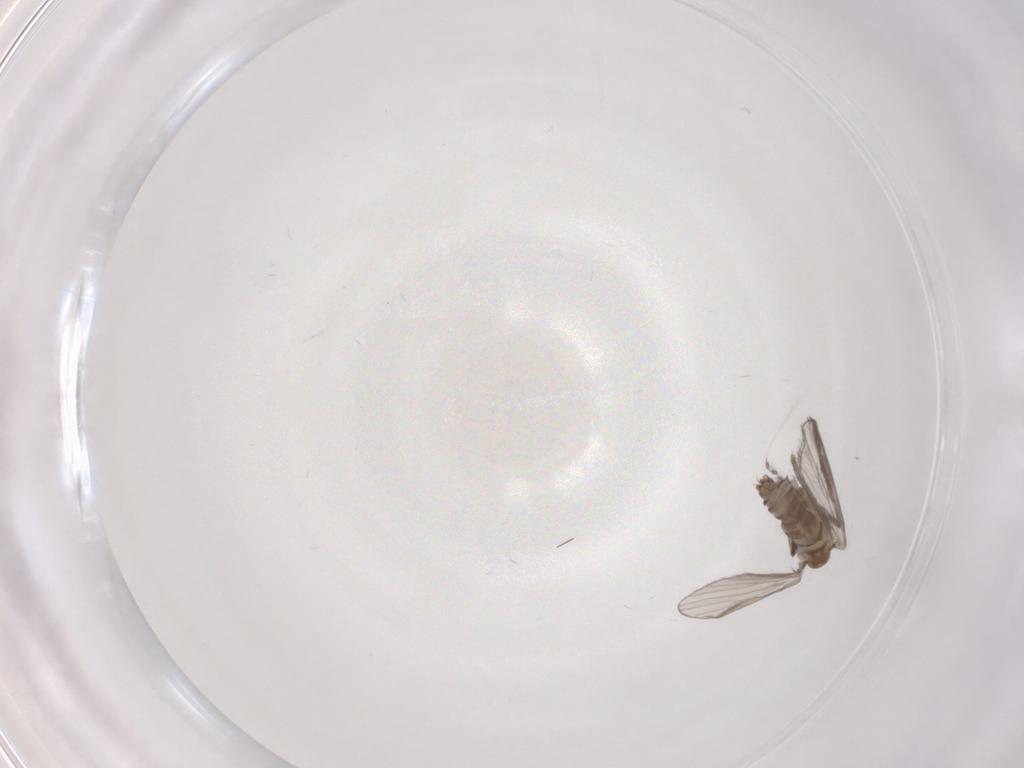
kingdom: Animalia
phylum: Arthropoda
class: Insecta
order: Diptera
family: Psychodidae
